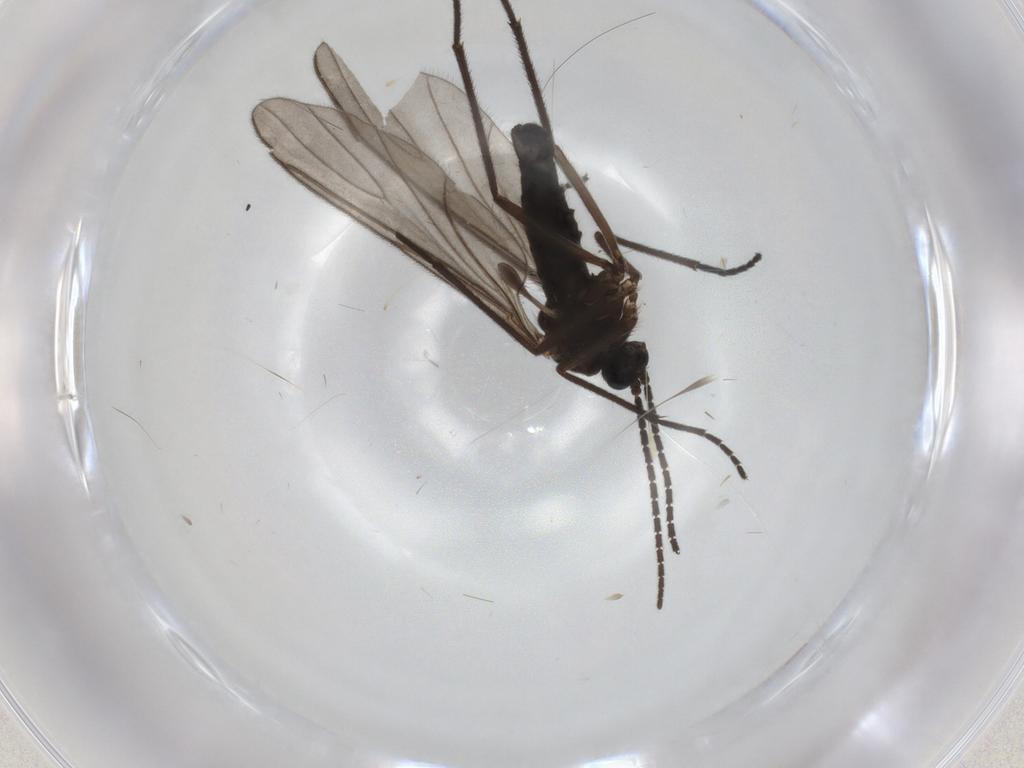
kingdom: Animalia
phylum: Arthropoda
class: Insecta
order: Diptera
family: Sciaridae
